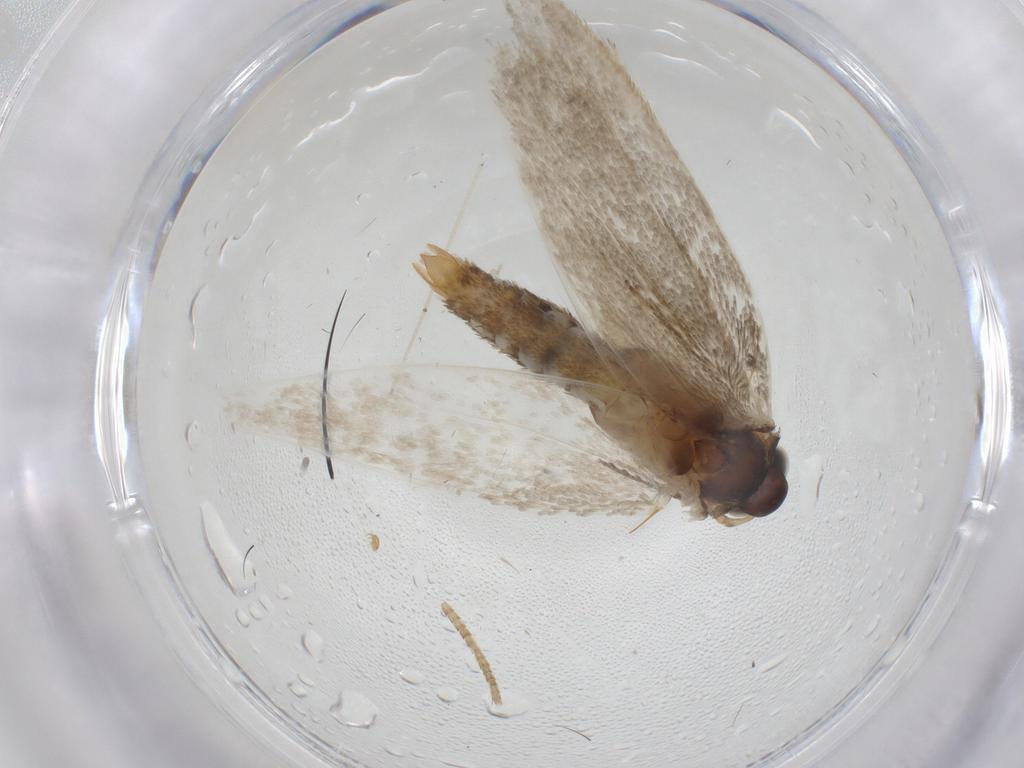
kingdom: Animalia
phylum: Arthropoda
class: Insecta
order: Lepidoptera
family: Erebidae
